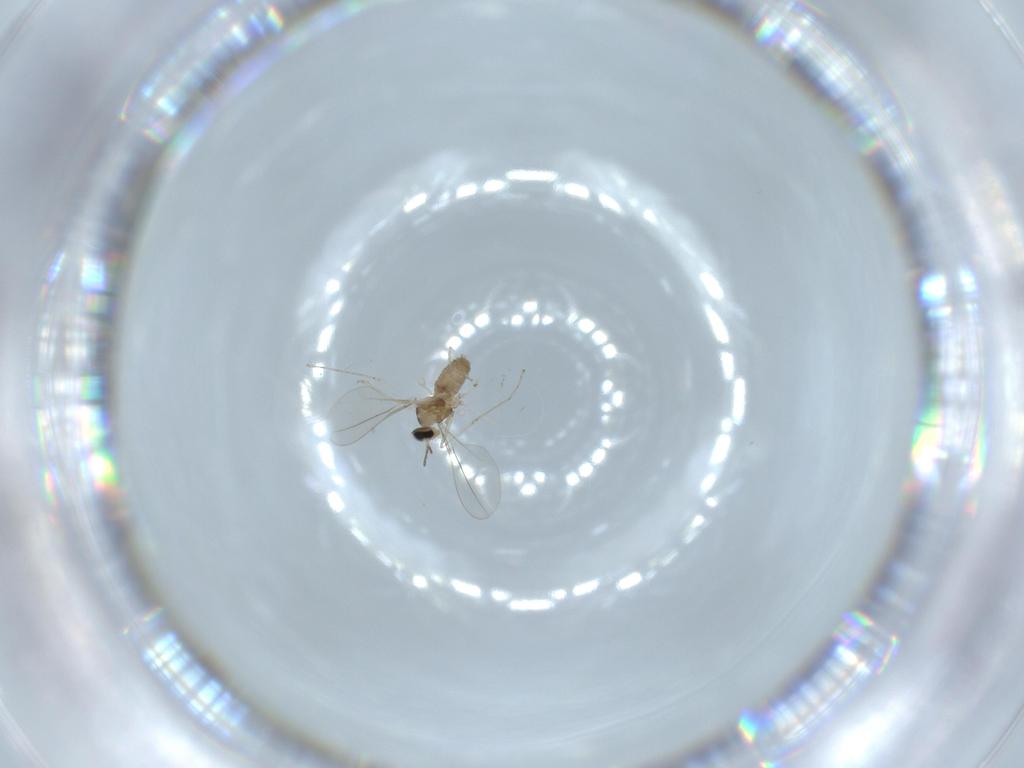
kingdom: Animalia
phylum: Arthropoda
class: Insecta
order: Diptera
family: Cecidomyiidae
